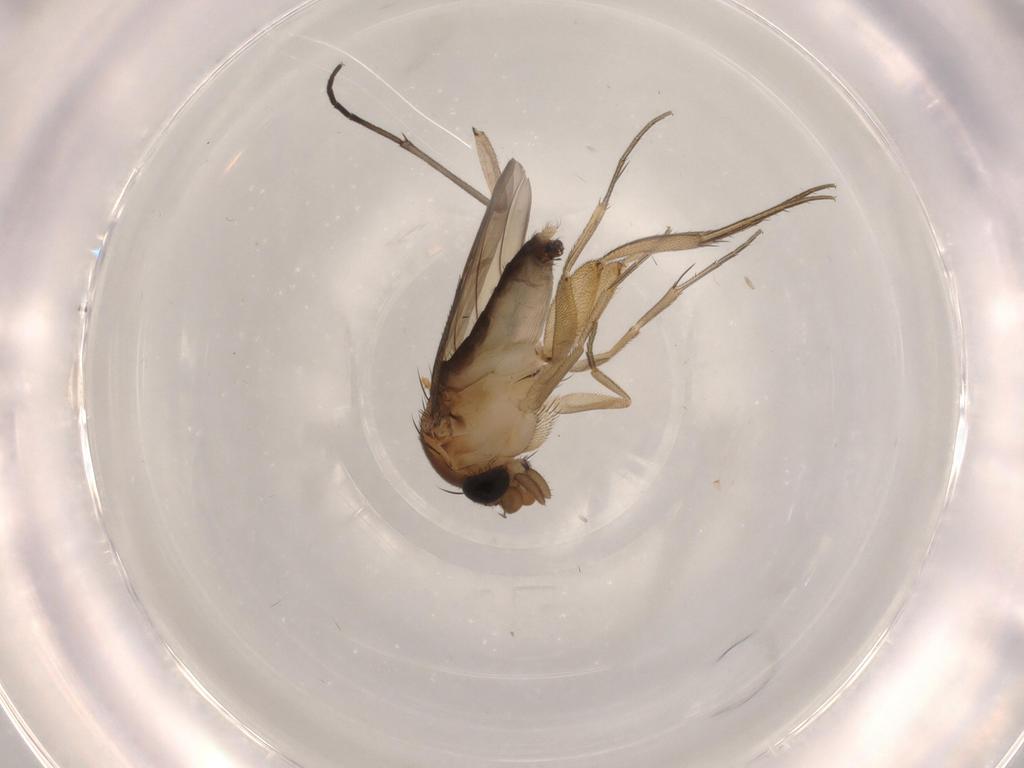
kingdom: Animalia
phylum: Arthropoda
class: Insecta
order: Diptera
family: Phoridae
